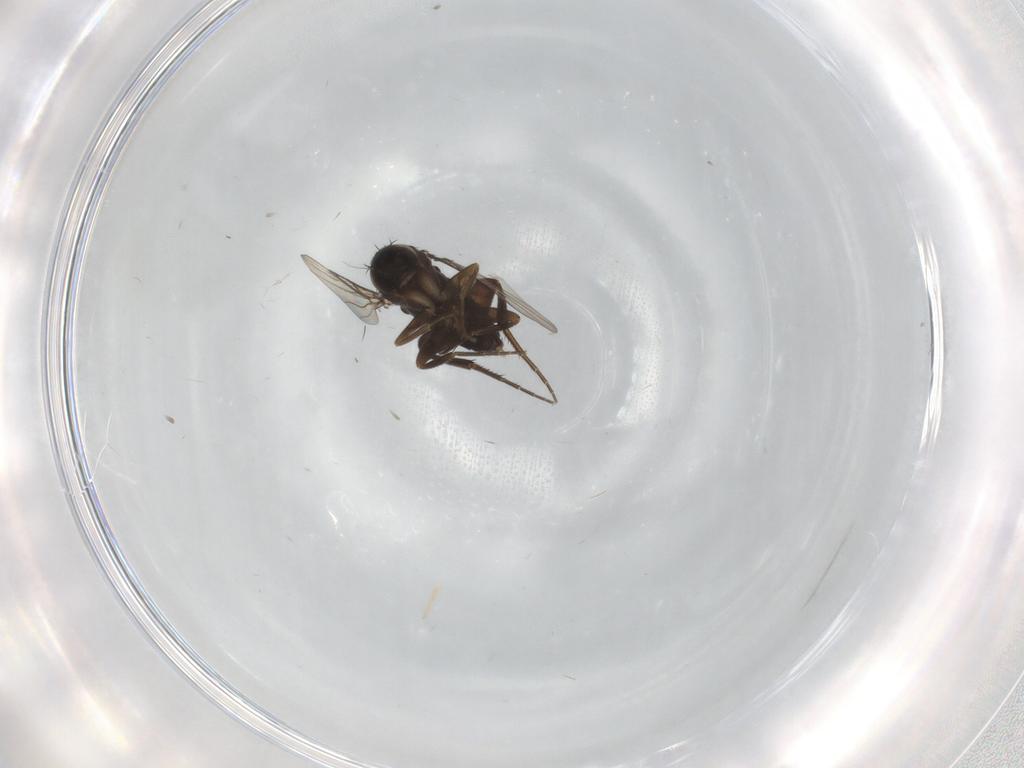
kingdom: Animalia
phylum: Arthropoda
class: Insecta
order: Diptera
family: Phoridae
